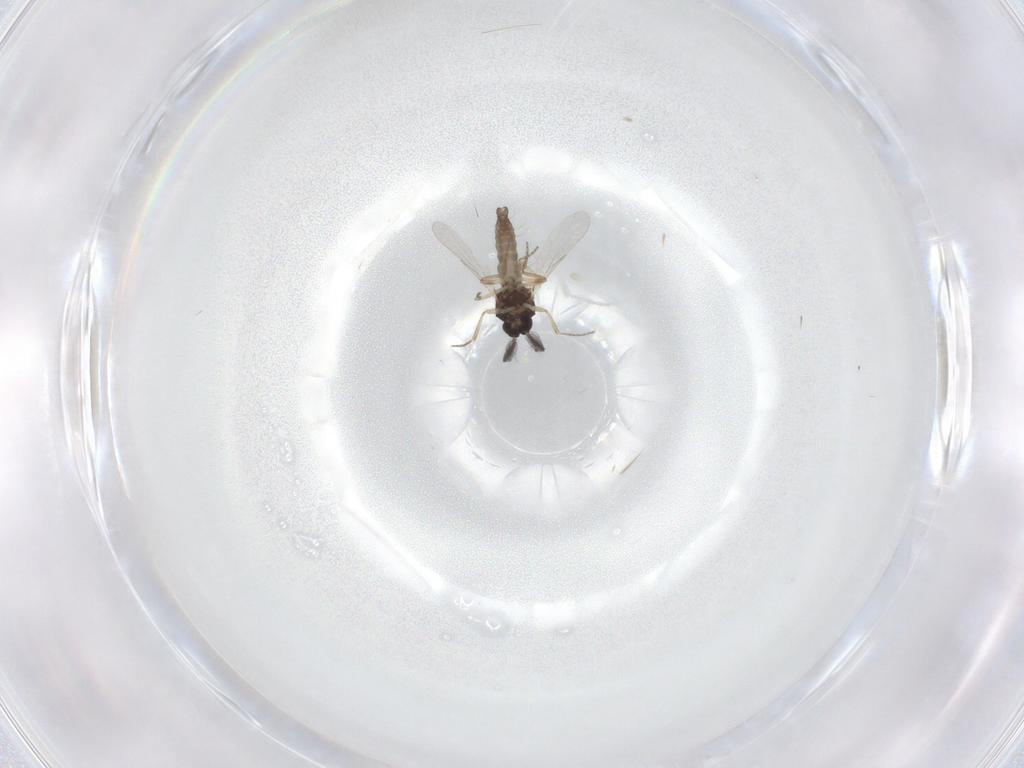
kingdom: Animalia
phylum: Arthropoda
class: Insecta
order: Diptera
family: Ceratopogonidae
